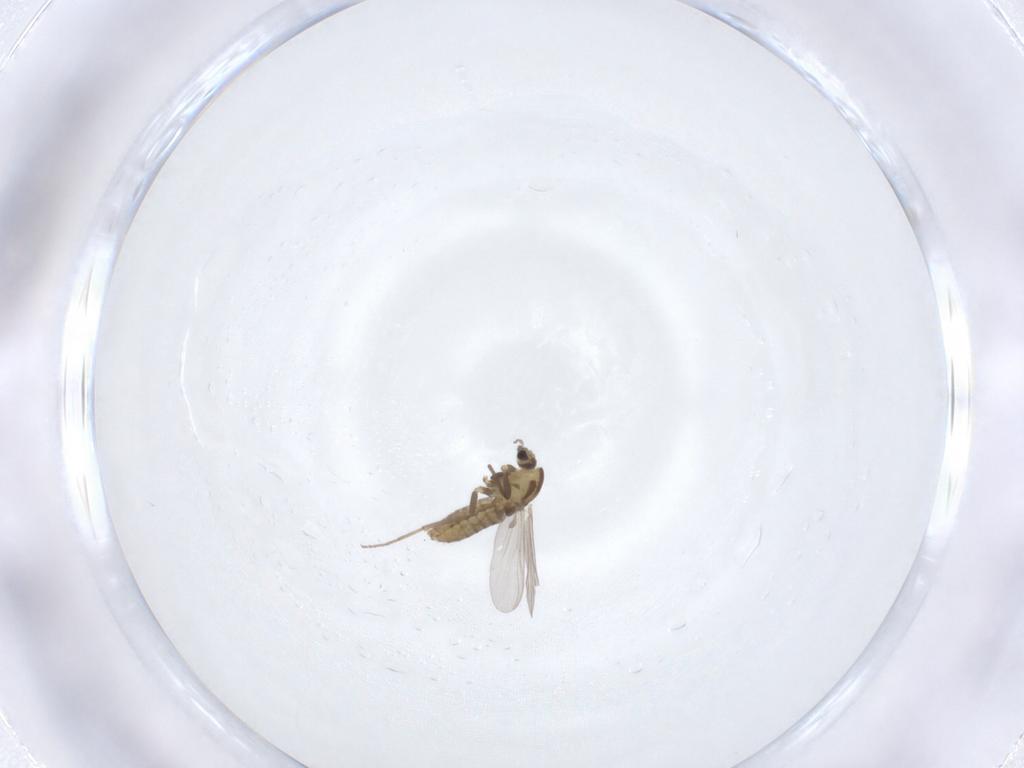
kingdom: Animalia
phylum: Arthropoda
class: Insecta
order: Diptera
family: Chironomidae
